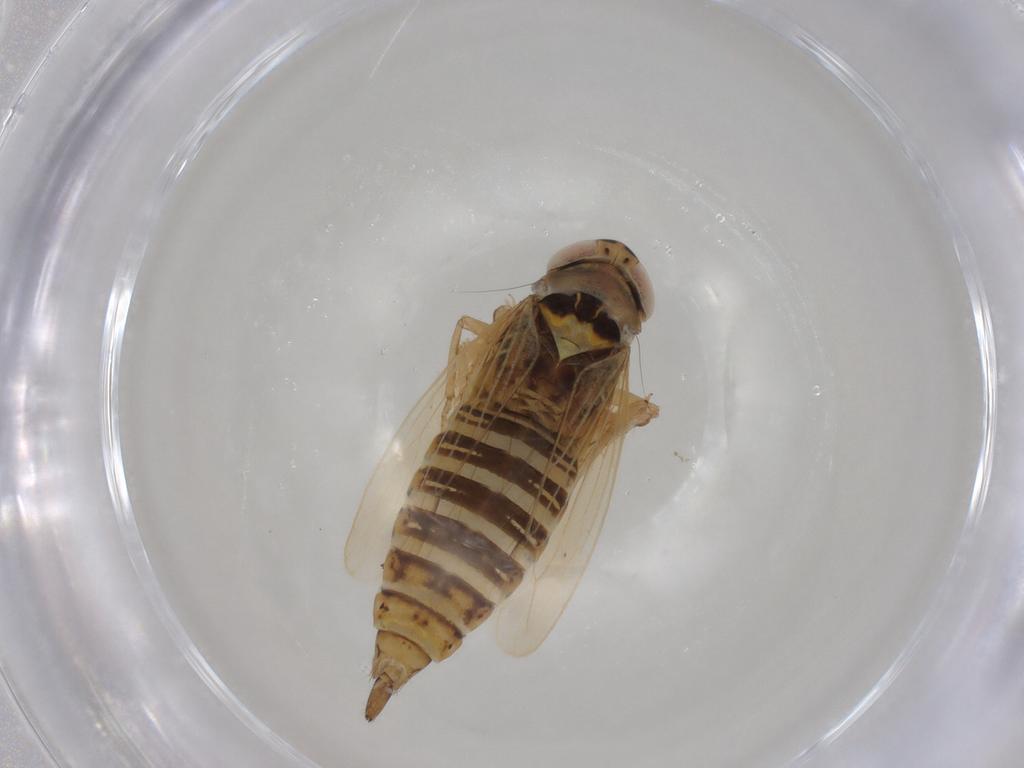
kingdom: Animalia
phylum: Arthropoda
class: Insecta
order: Hemiptera
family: Cicadellidae
